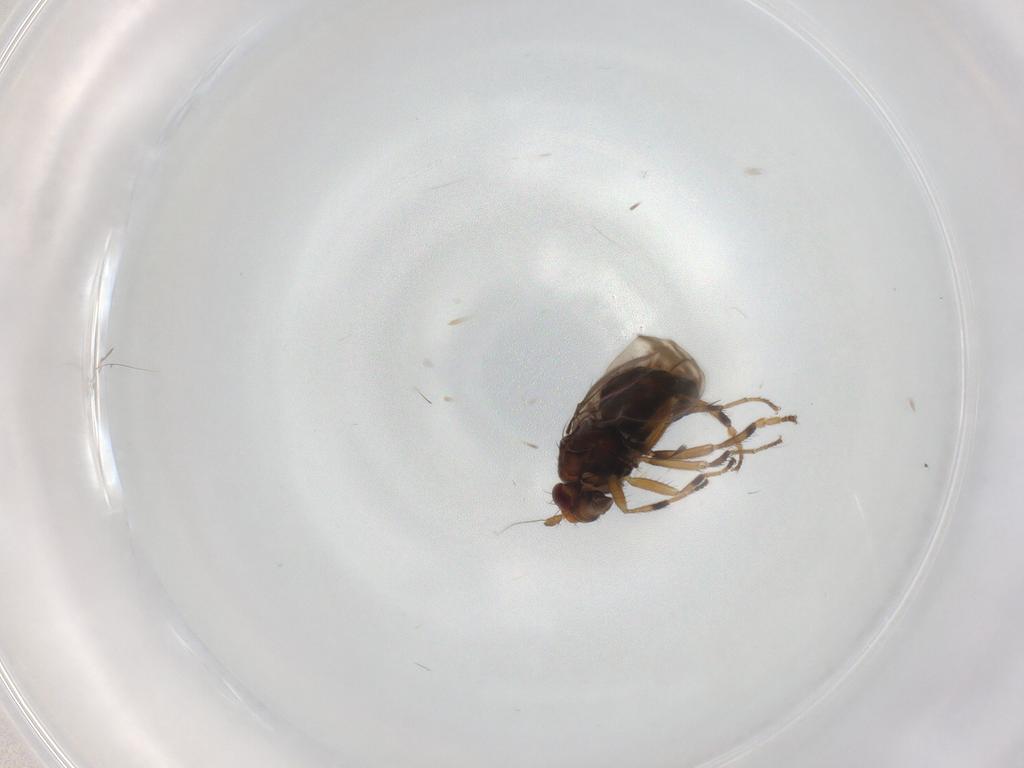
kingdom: Animalia
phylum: Arthropoda
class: Insecta
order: Diptera
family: Sphaeroceridae
